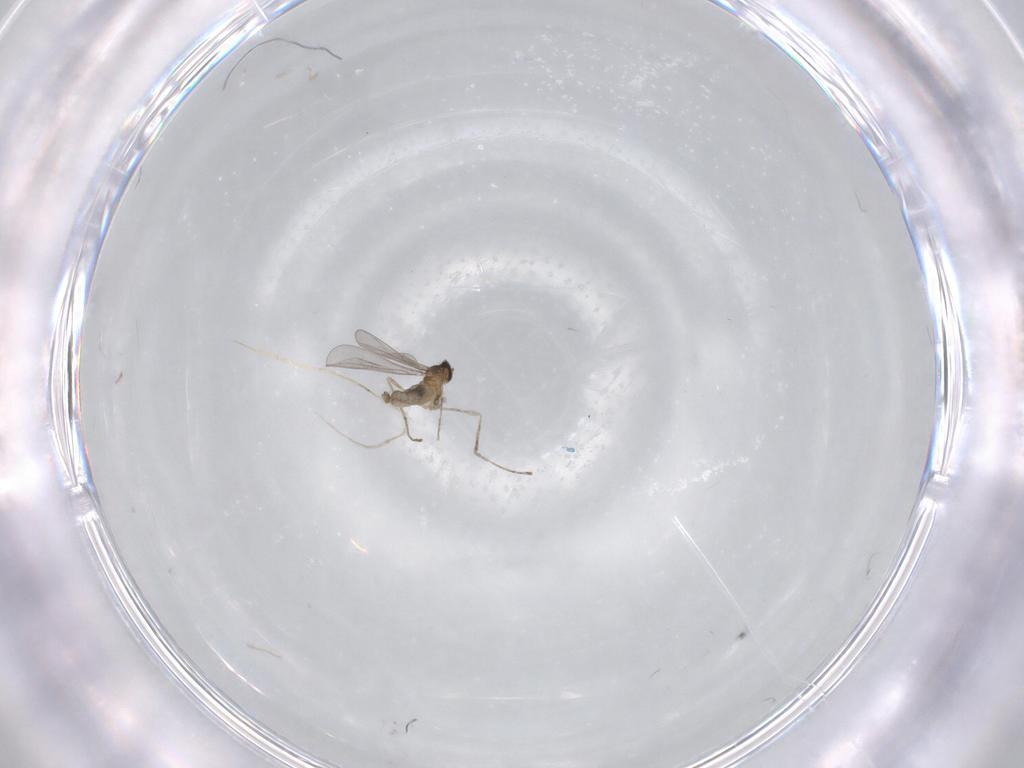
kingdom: Animalia
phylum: Arthropoda
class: Insecta
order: Diptera
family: Cecidomyiidae
